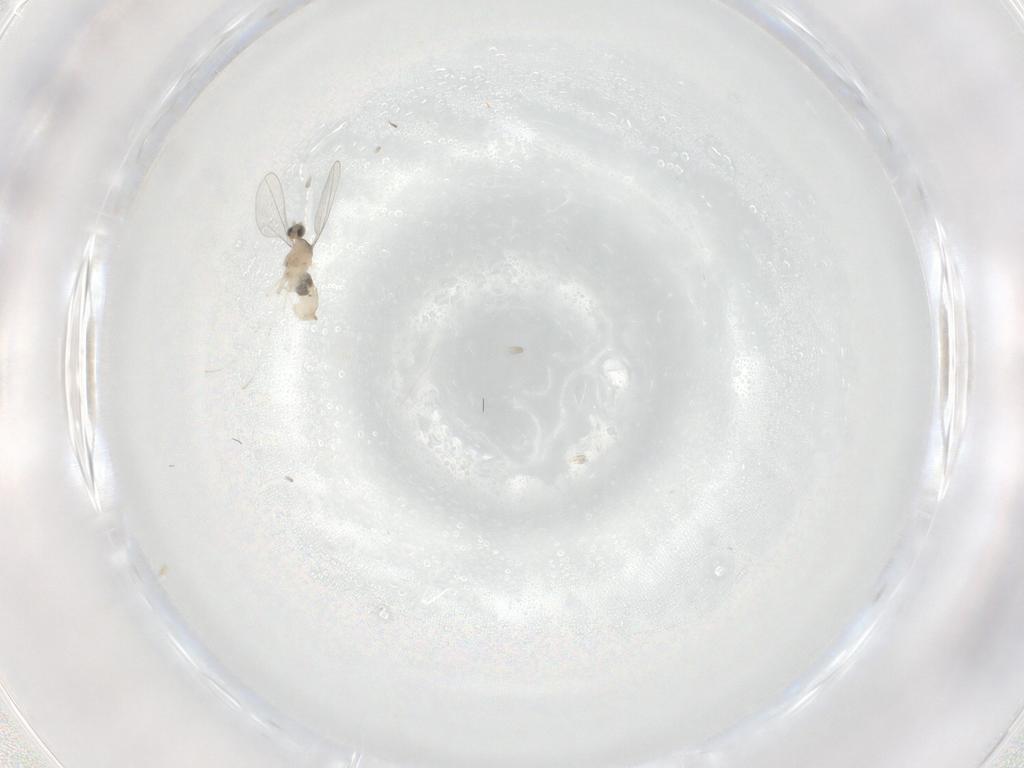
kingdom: Animalia
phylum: Arthropoda
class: Insecta
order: Diptera
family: Cecidomyiidae
